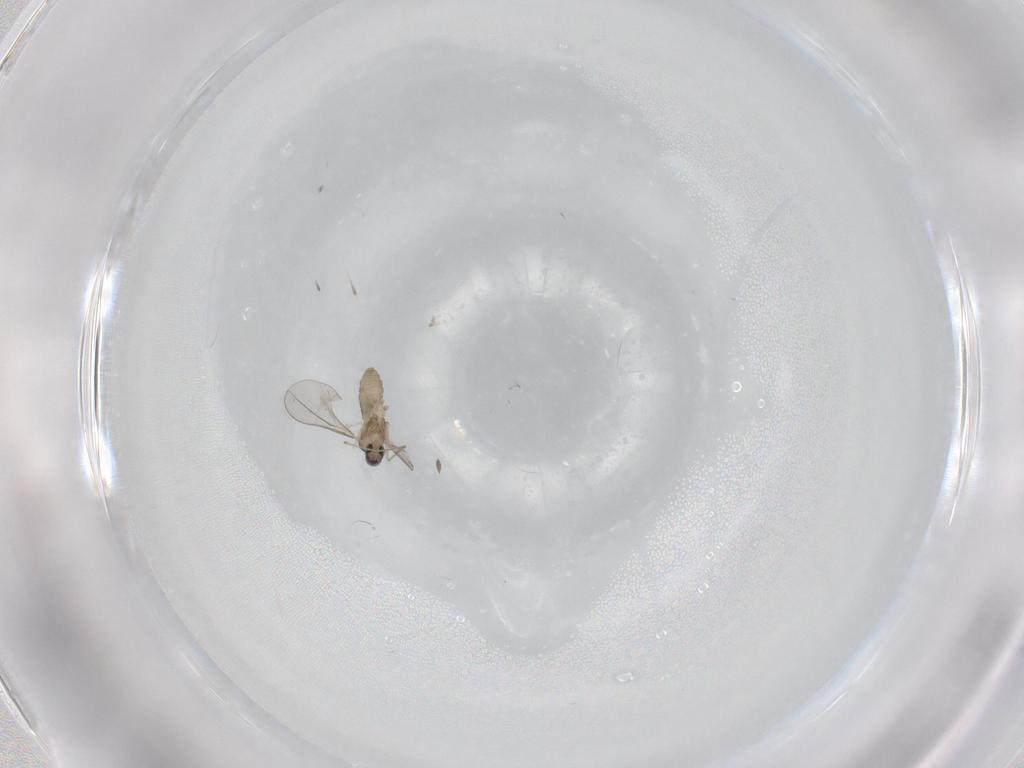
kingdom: Animalia
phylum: Arthropoda
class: Insecta
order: Diptera
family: Cecidomyiidae
